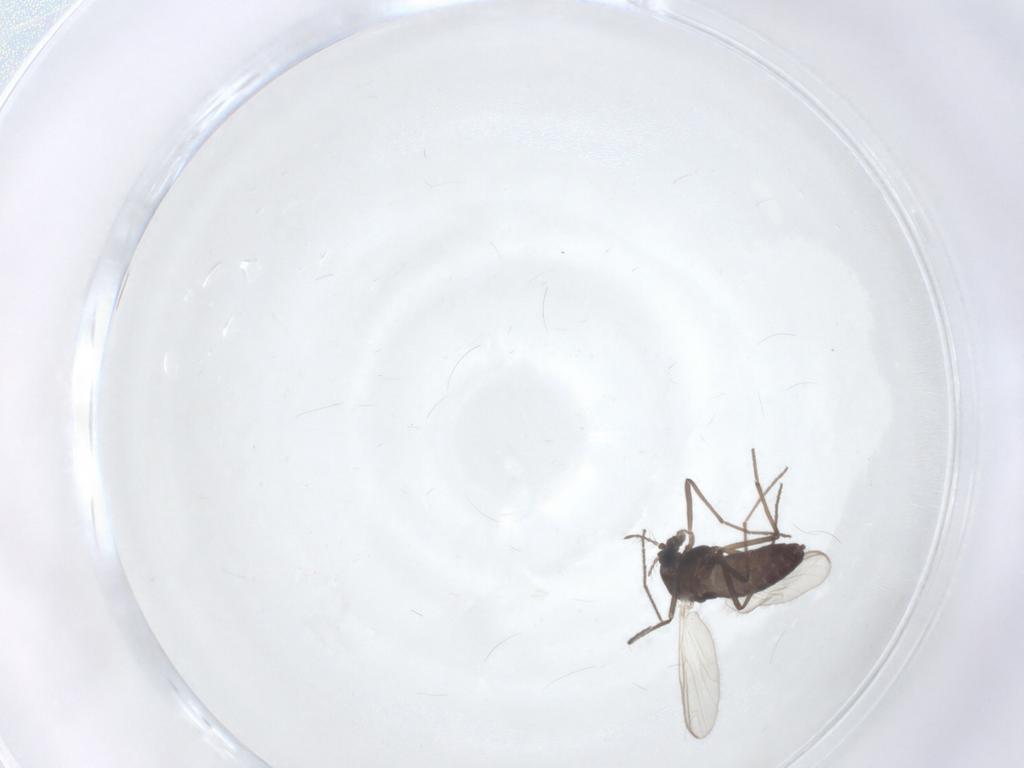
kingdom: Animalia
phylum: Arthropoda
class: Insecta
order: Diptera
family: Chironomidae
